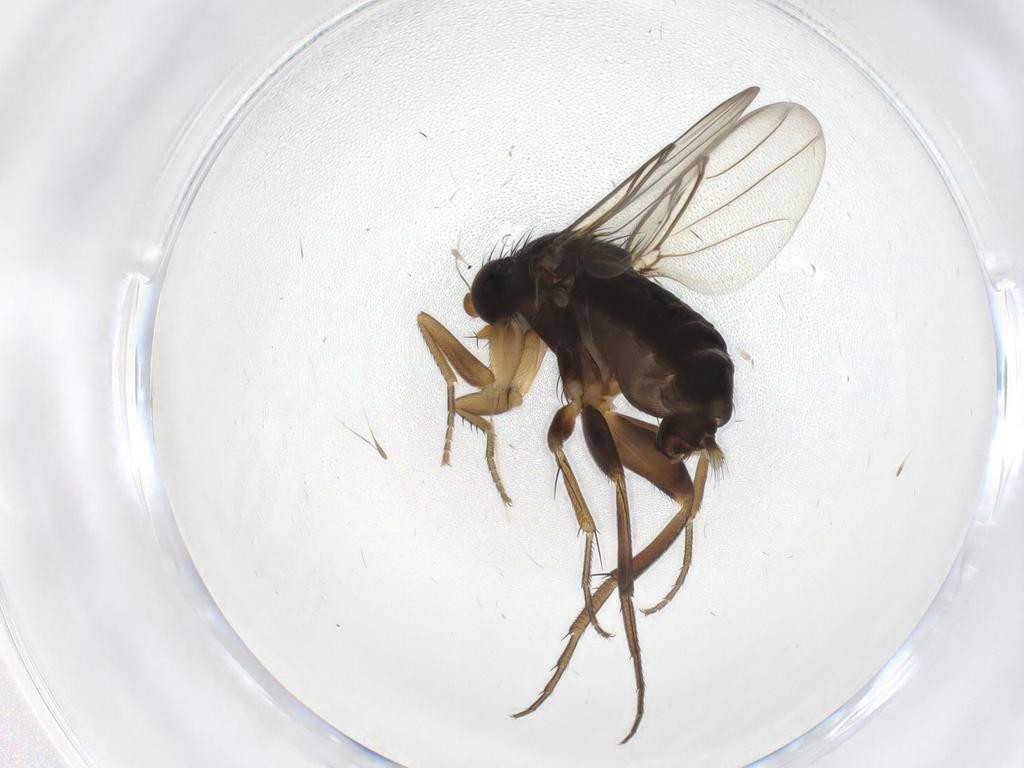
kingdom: Animalia
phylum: Arthropoda
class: Insecta
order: Diptera
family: Phoridae
